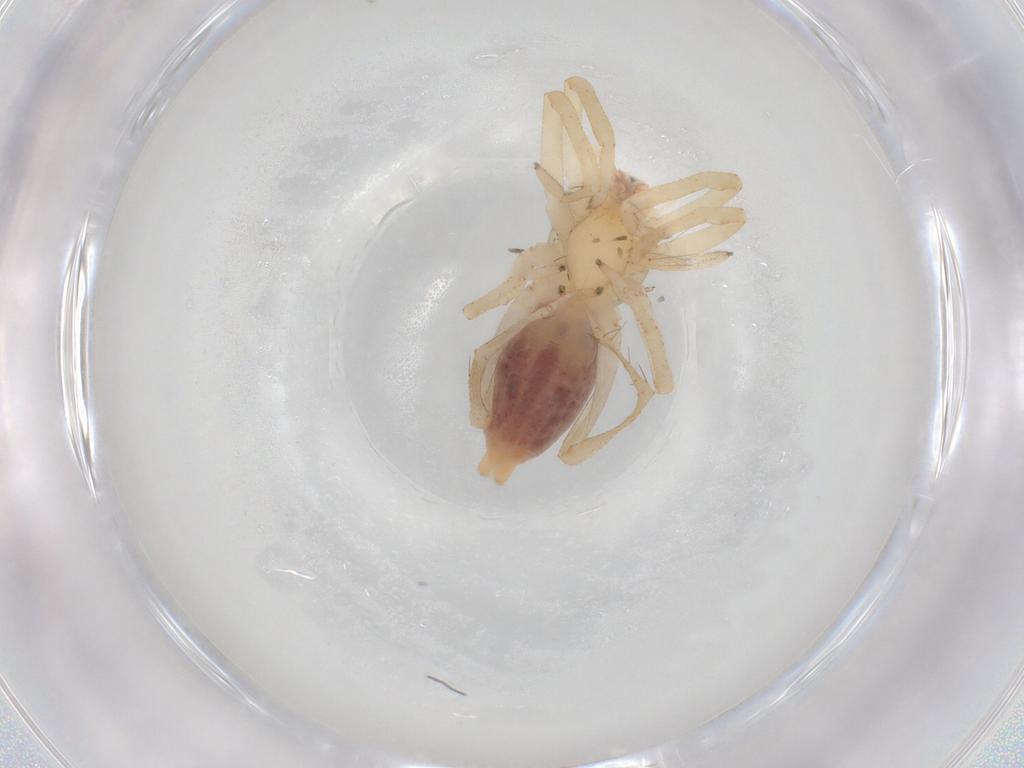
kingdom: Animalia
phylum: Arthropoda
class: Arachnida
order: Araneae
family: Clubionidae
